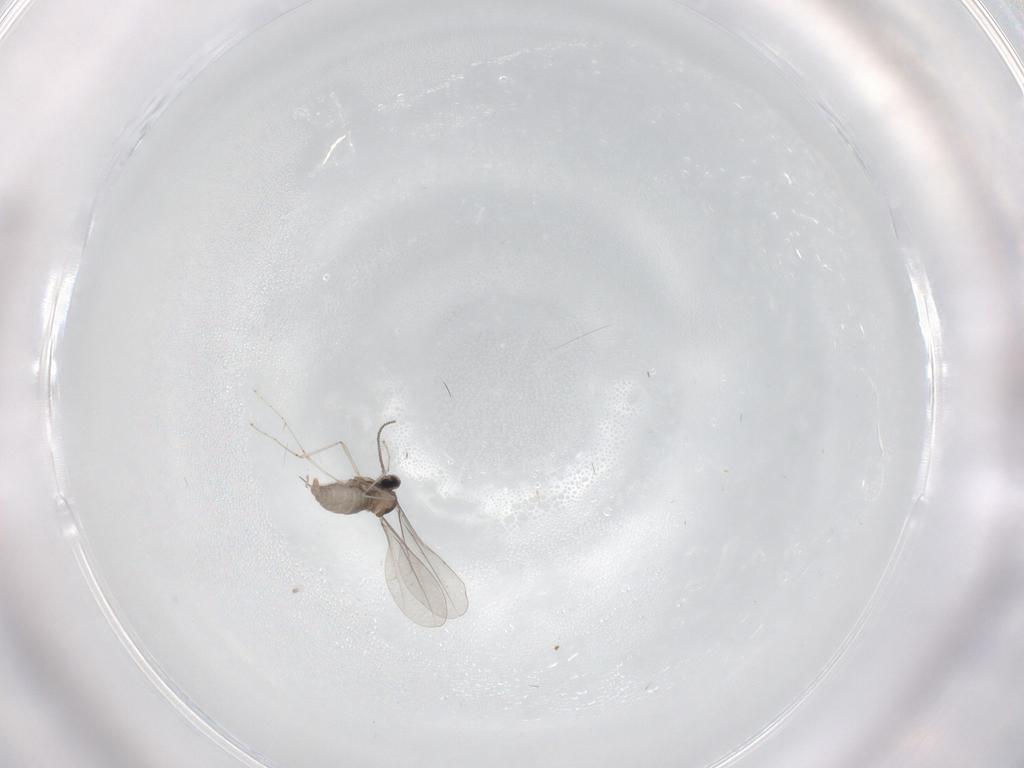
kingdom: Animalia
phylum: Arthropoda
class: Insecta
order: Diptera
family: Cecidomyiidae
